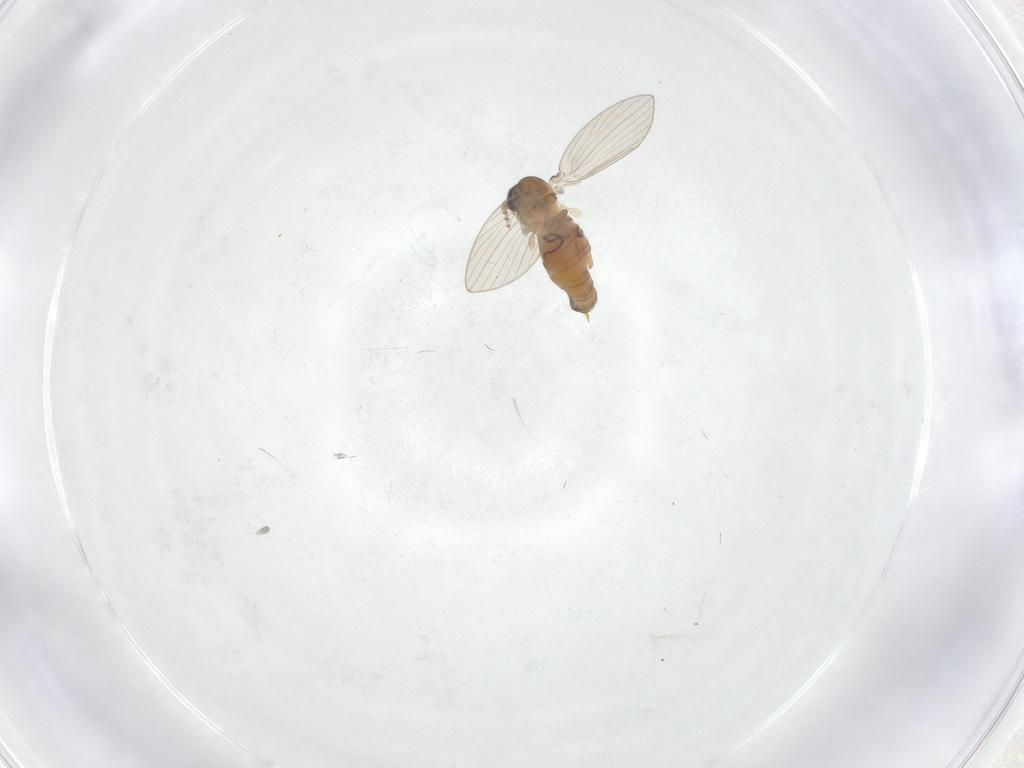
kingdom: Animalia
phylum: Arthropoda
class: Insecta
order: Diptera
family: Psychodidae
